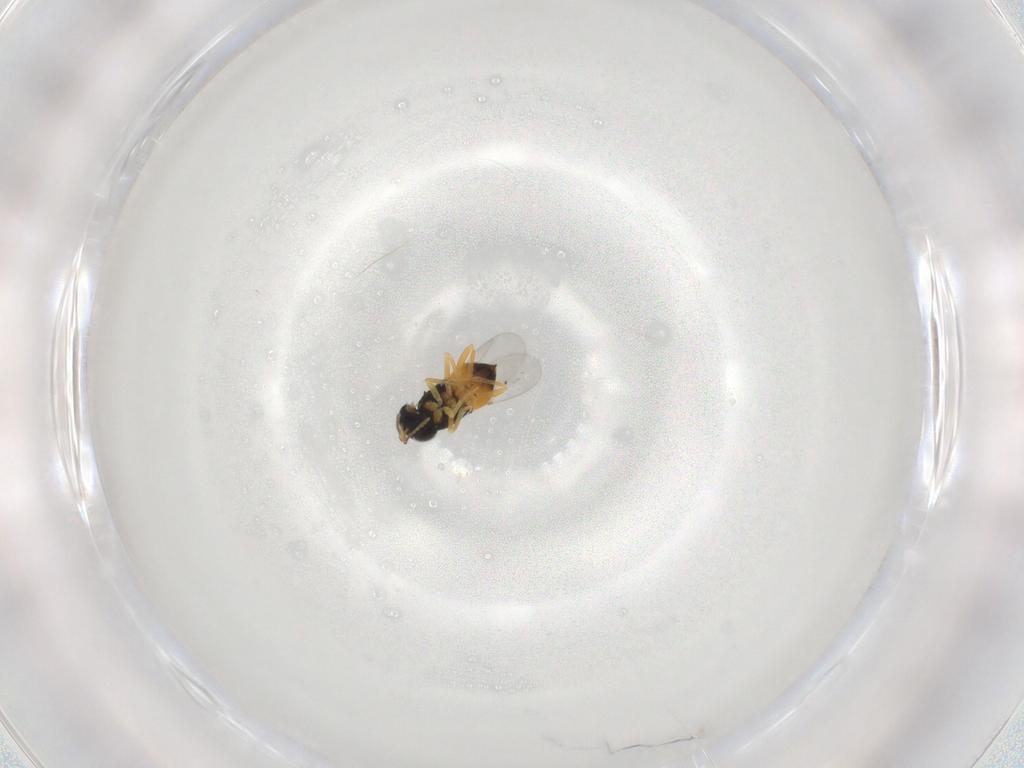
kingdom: Animalia
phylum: Arthropoda
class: Insecta
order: Hymenoptera
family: Encyrtidae
